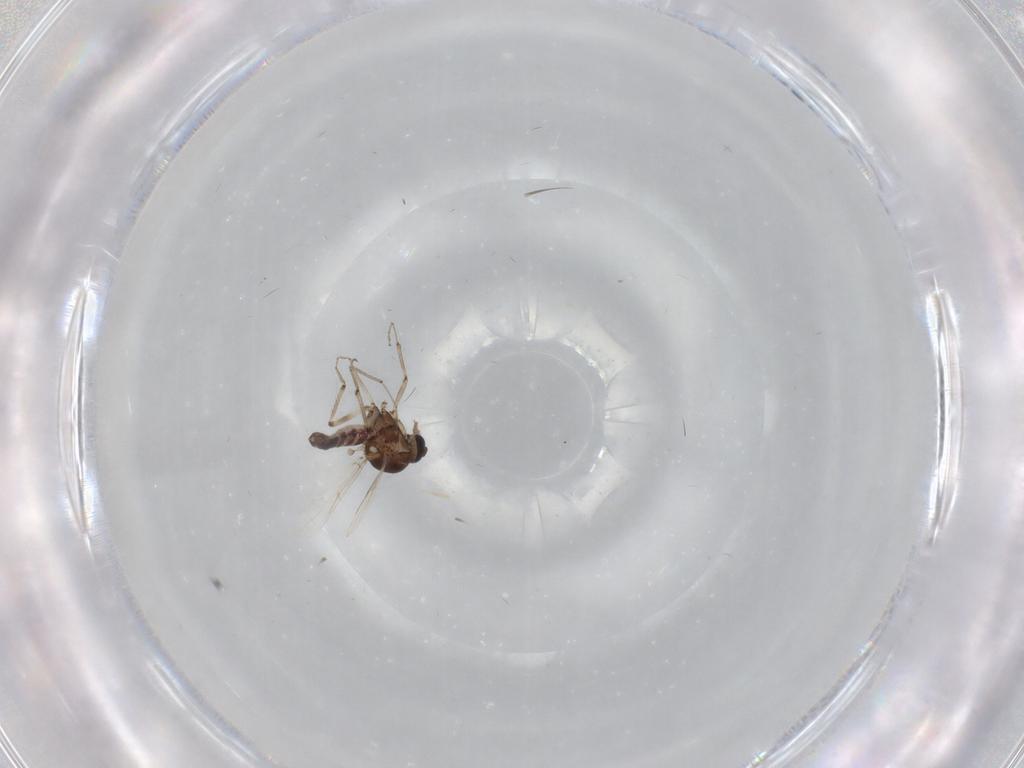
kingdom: Animalia
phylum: Arthropoda
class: Insecta
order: Diptera
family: Ceratopogonidae
